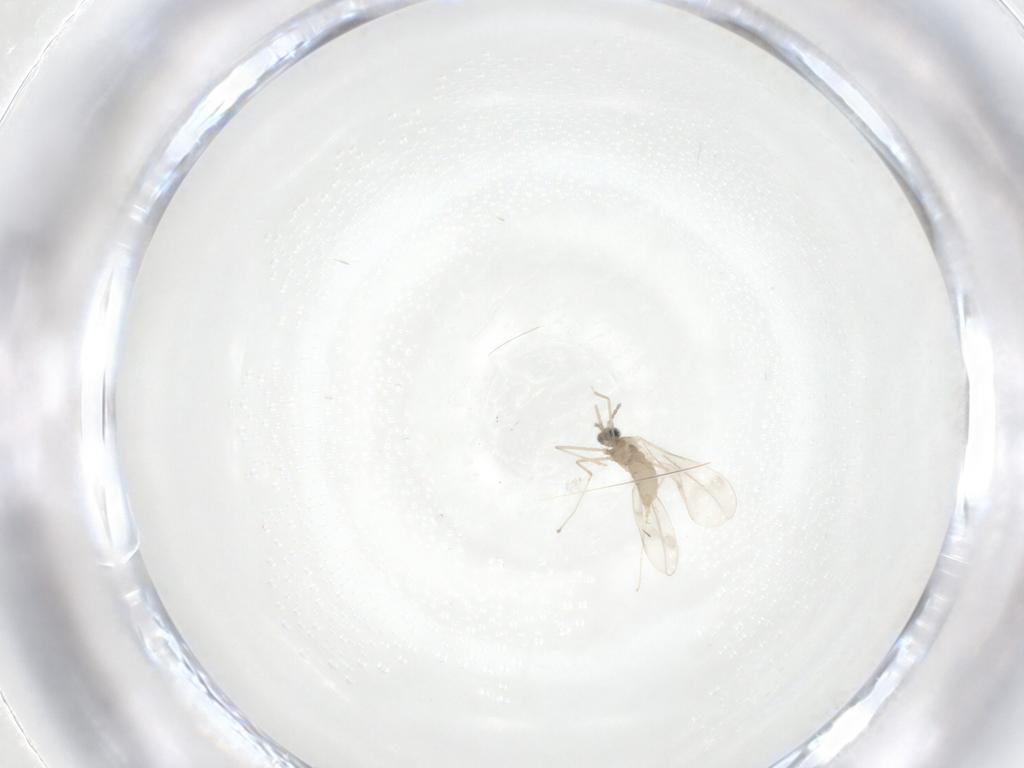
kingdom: Animalia
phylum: Arthropoda
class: Insecta
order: Diptera
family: Cecidomyiidae
